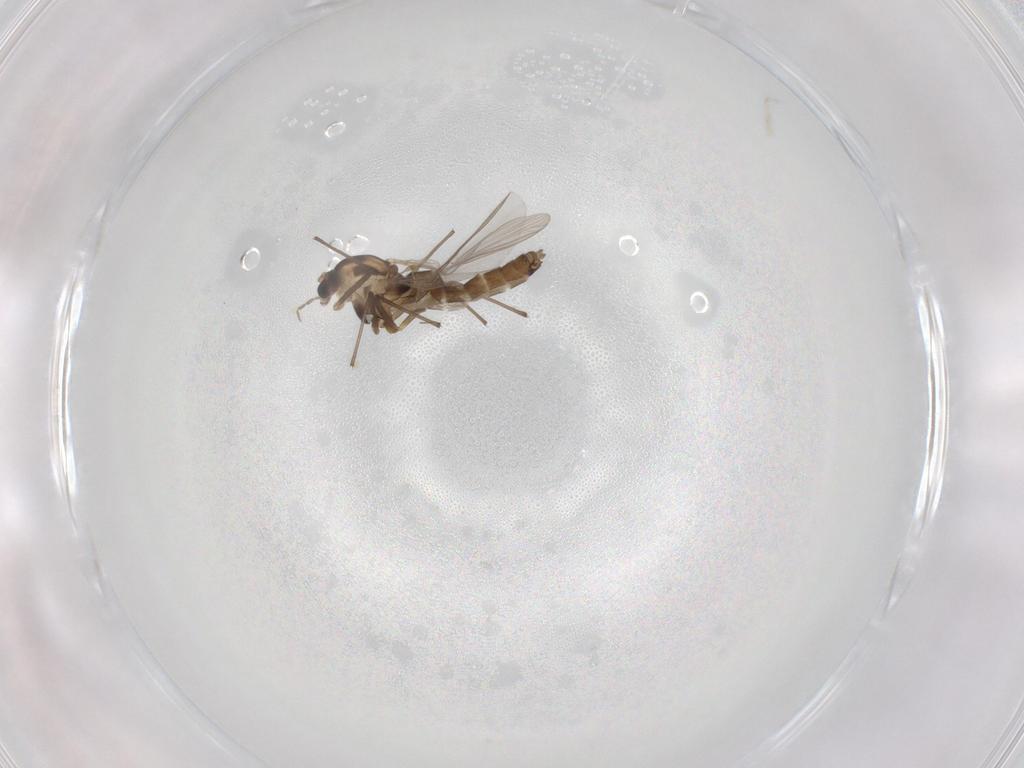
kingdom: Animalia
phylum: Arthropoda
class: Insecta
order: Diptera
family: Chironomidae
